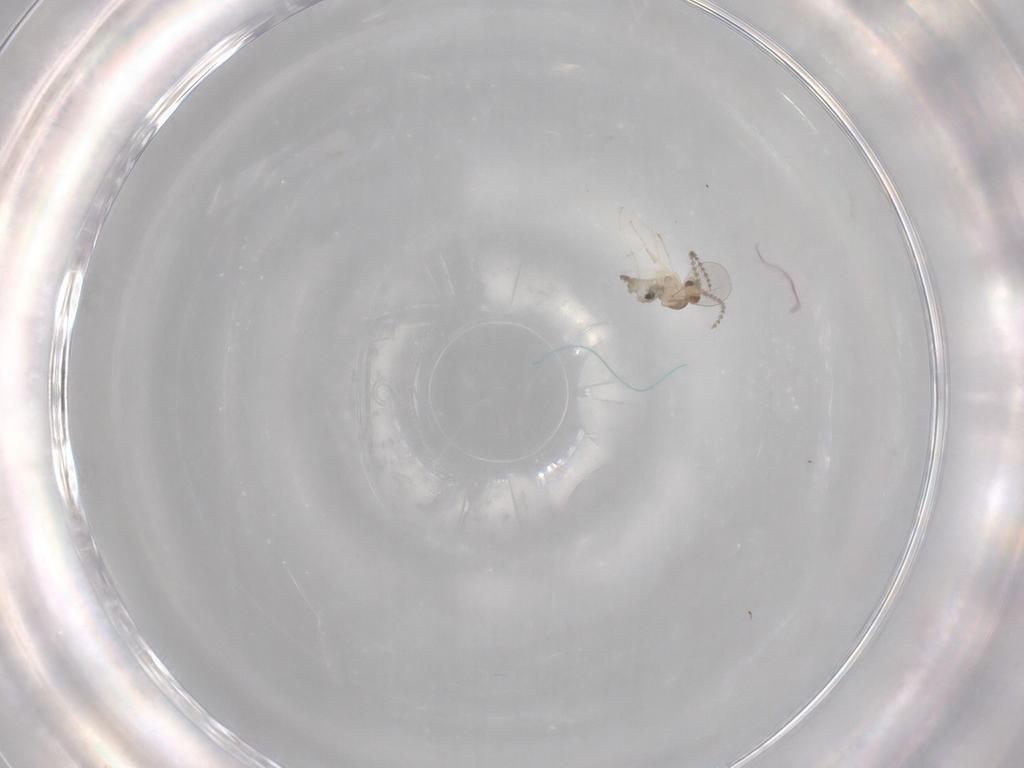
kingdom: Animalia
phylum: Arthropoda
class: Insecta
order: Diptera
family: Cecidomyiidae
